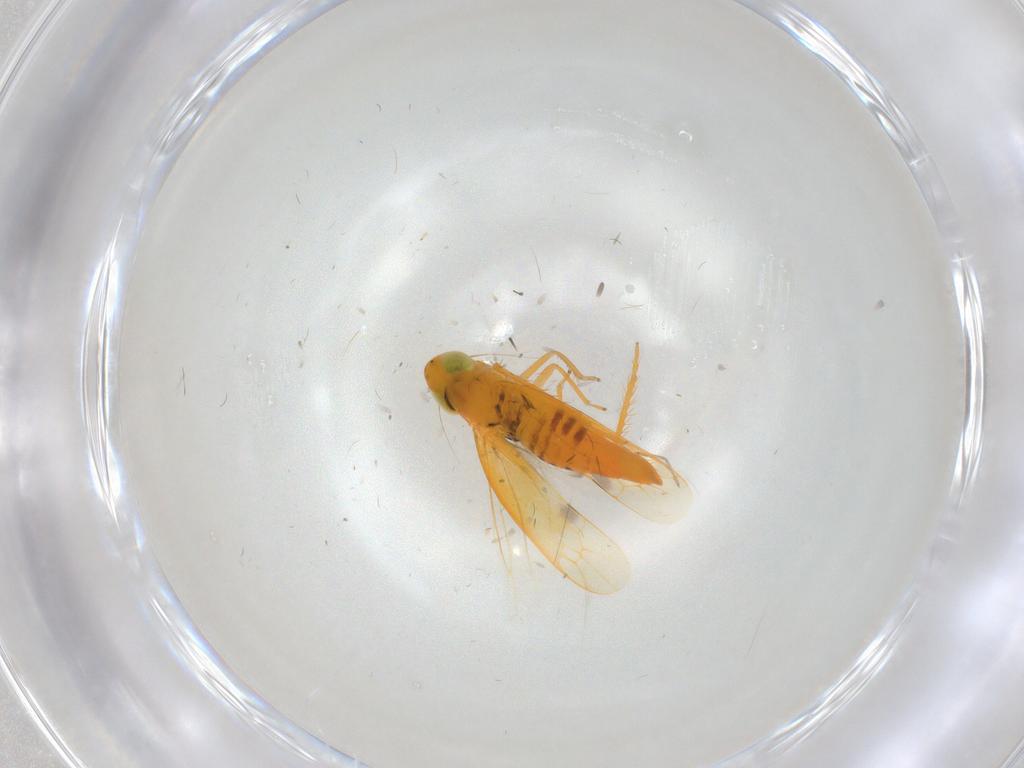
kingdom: Animalia
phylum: Arthropoda
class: Insecta
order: Hemiptera
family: Cicadellidae
